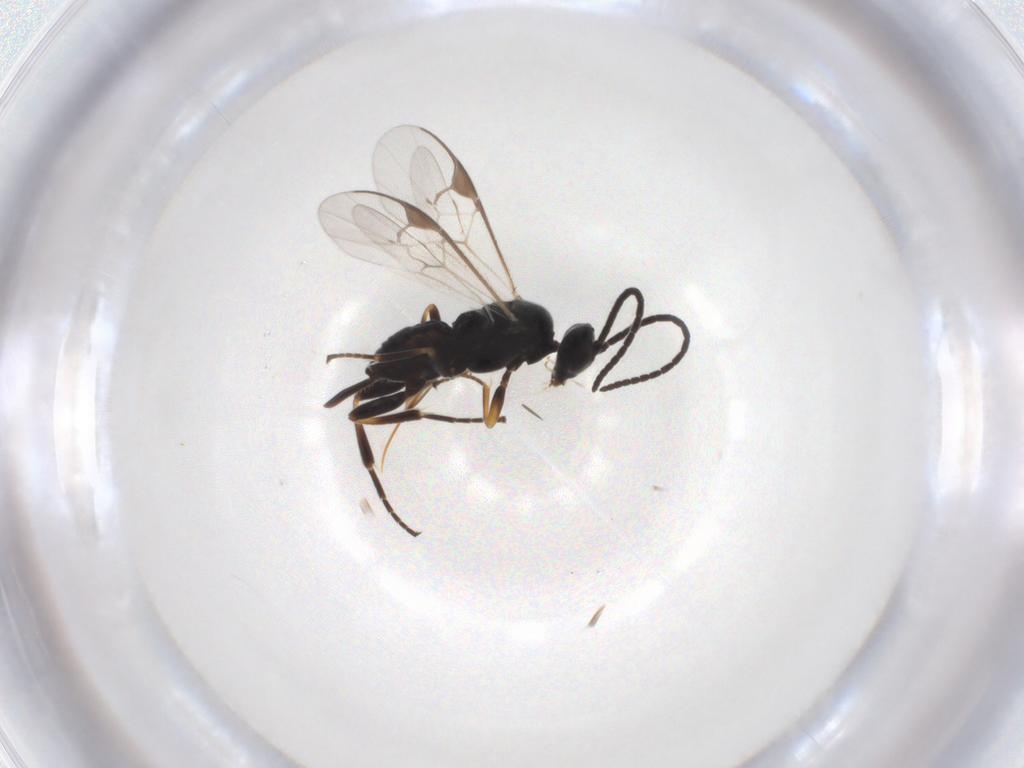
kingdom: Animalia
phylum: Arthropoda
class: Insecta
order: Hymenoptera
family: Braconidae
